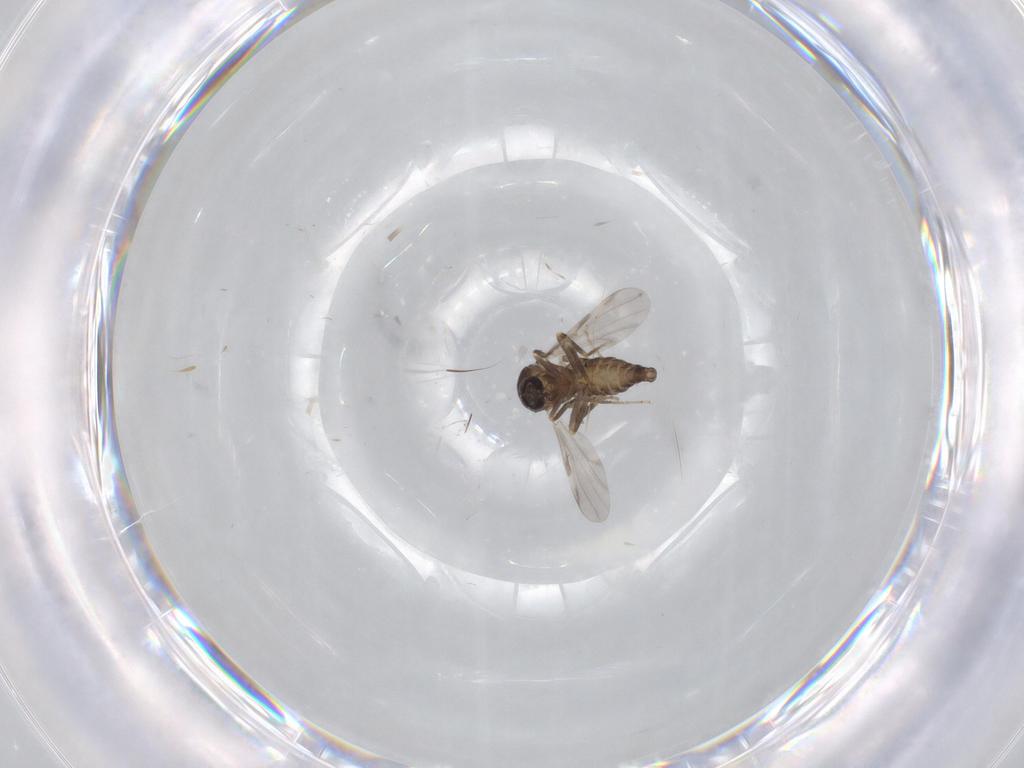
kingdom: Animalia
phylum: Arthropoda
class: Insecta
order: Diptera
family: Ceratopogonidae
